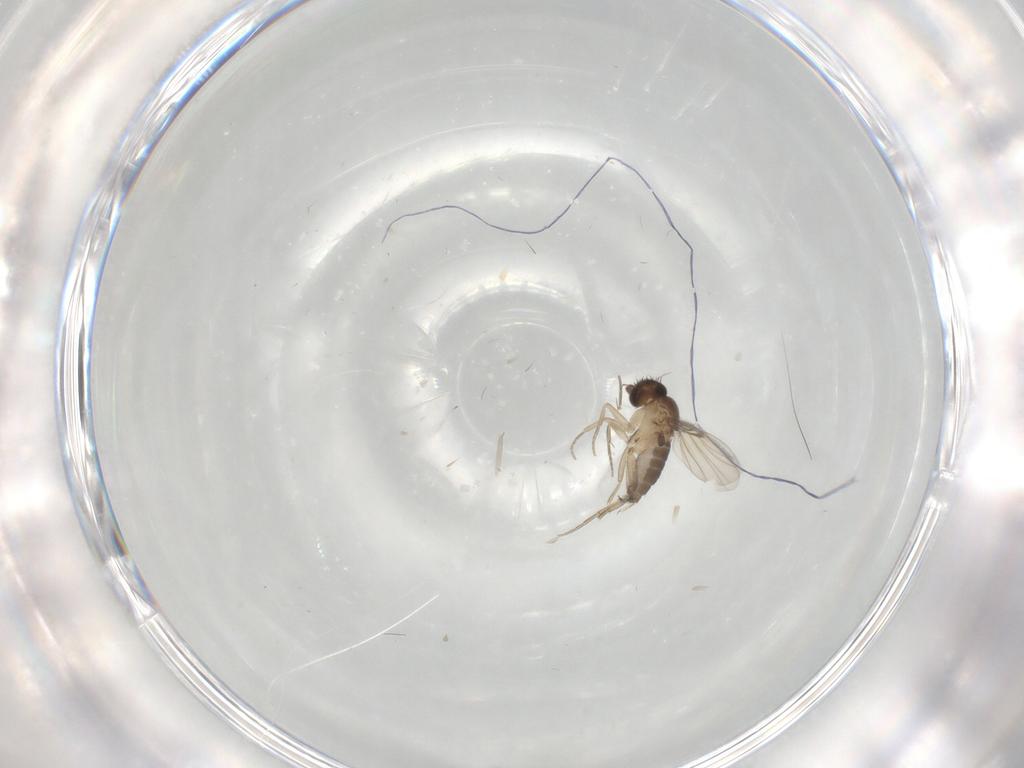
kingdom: Animalia
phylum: Arthropoda
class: Insecta
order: Diptera
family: Phoridae
